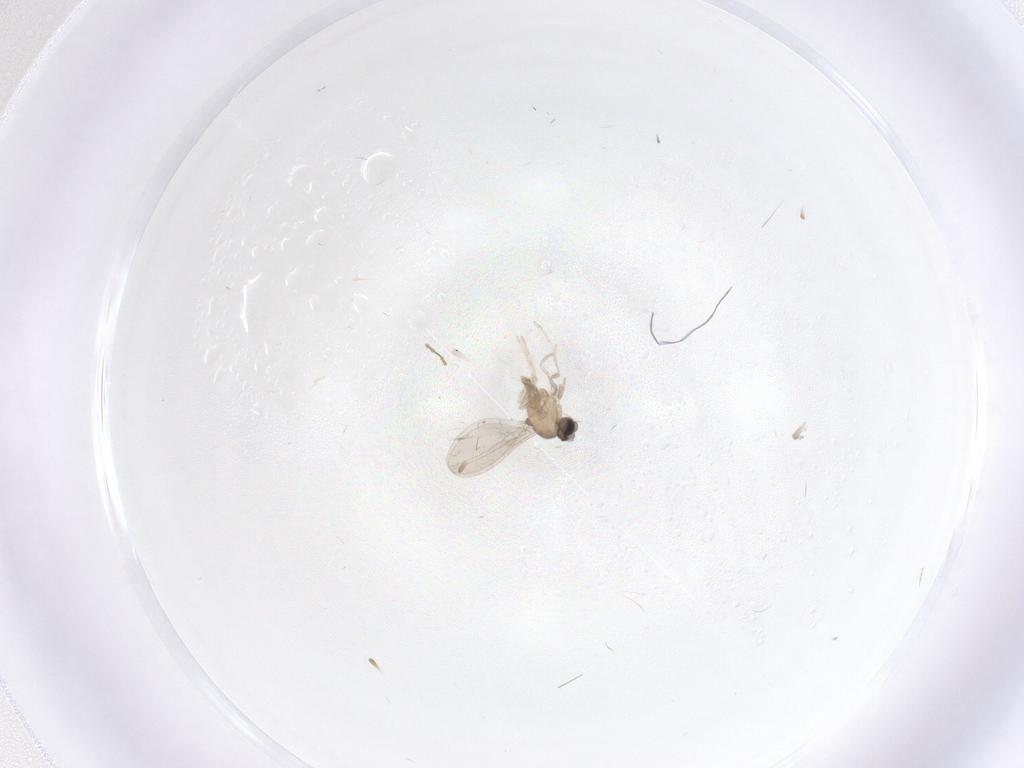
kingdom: Animalia
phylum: Arthropoda
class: Insecta
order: Diptera
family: Cecidomyiidae
